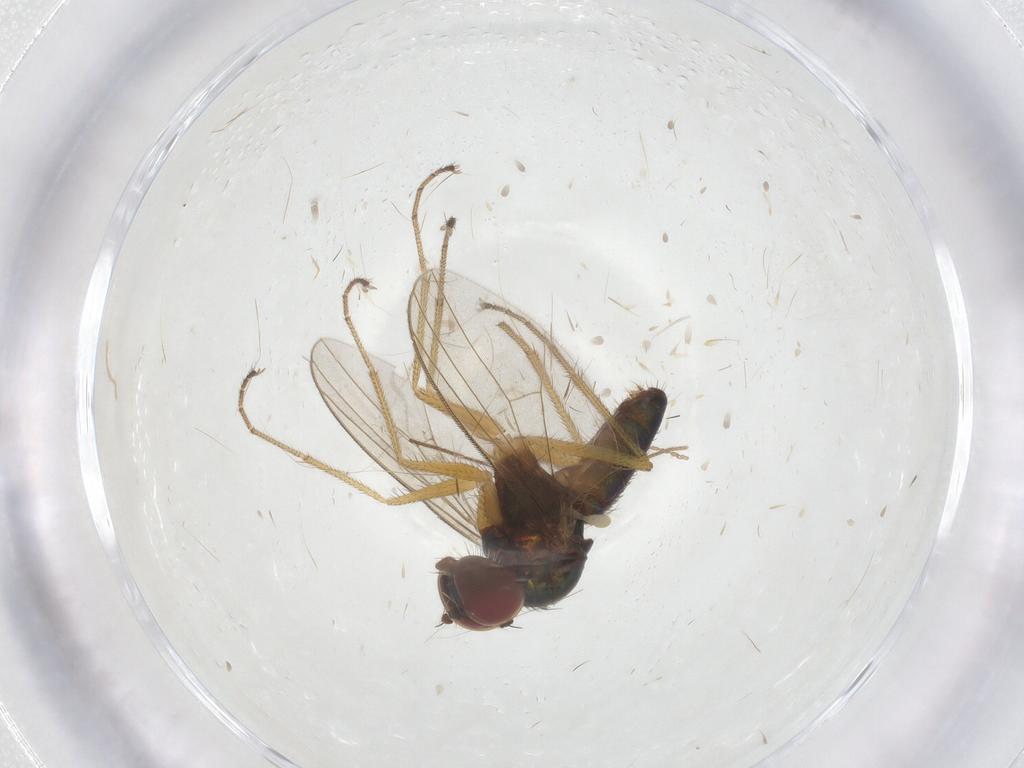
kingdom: Animalia
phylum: Arthropoda
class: Insecta
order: Diptera
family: Dolichopodidae
